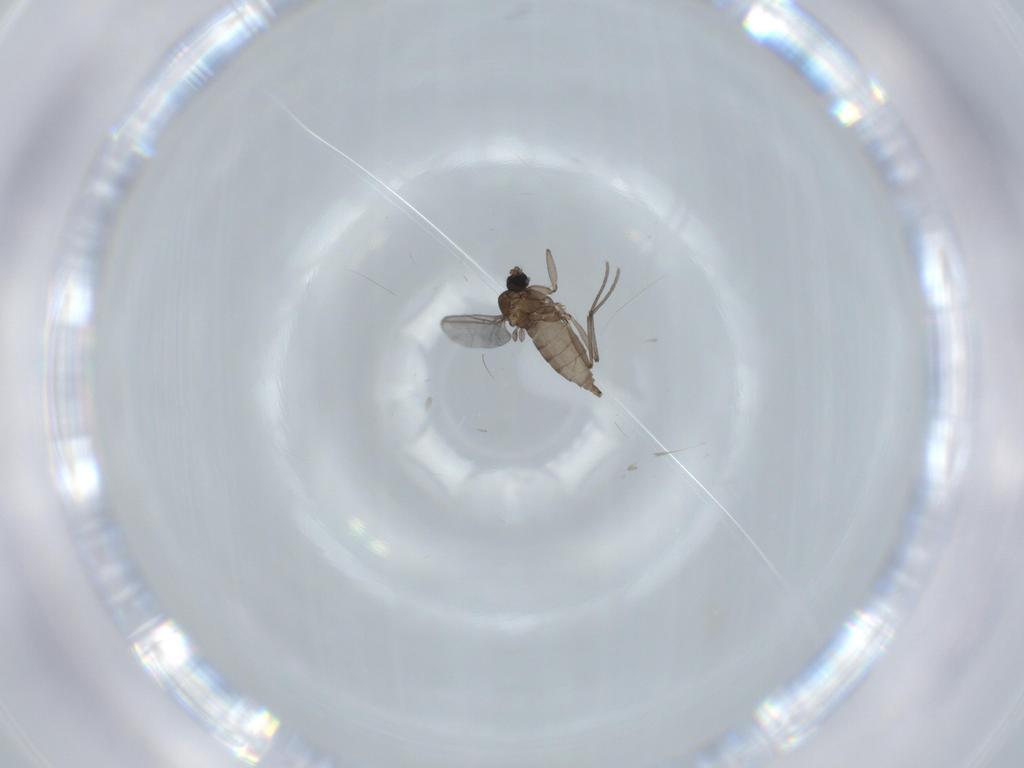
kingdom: Animalia
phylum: Arthropoda
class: Insecta
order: Diptera
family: Sciaridae
